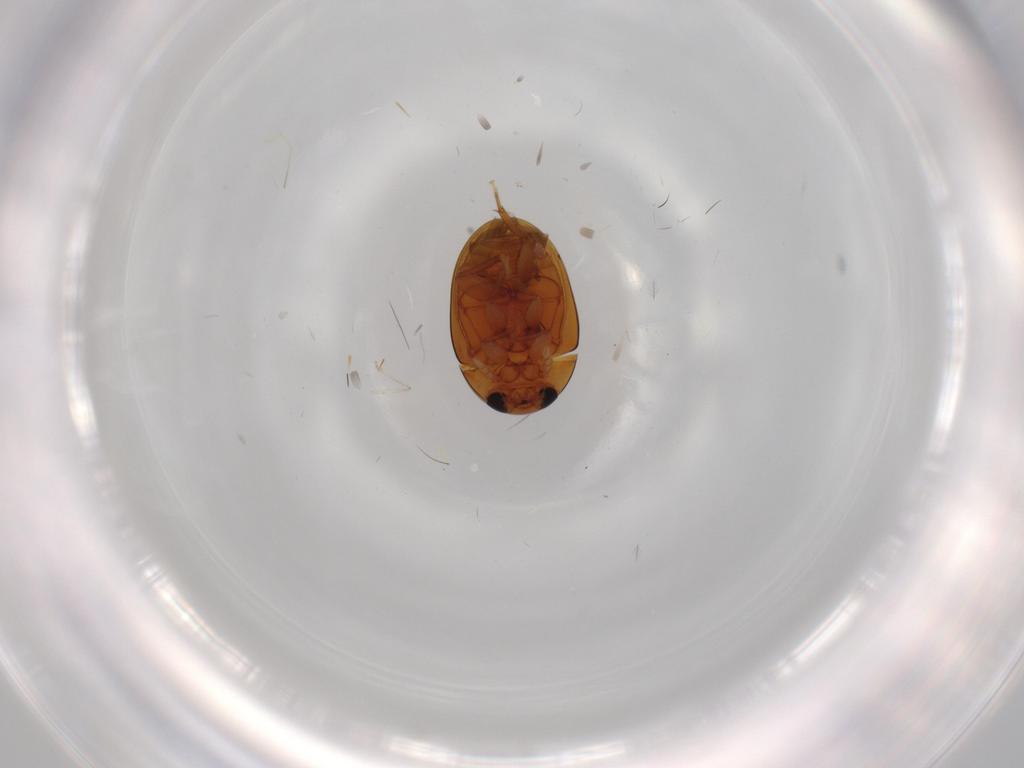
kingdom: Animalia
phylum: Arthropoda
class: Insecta
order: Coleoptera
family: Phalacridae
